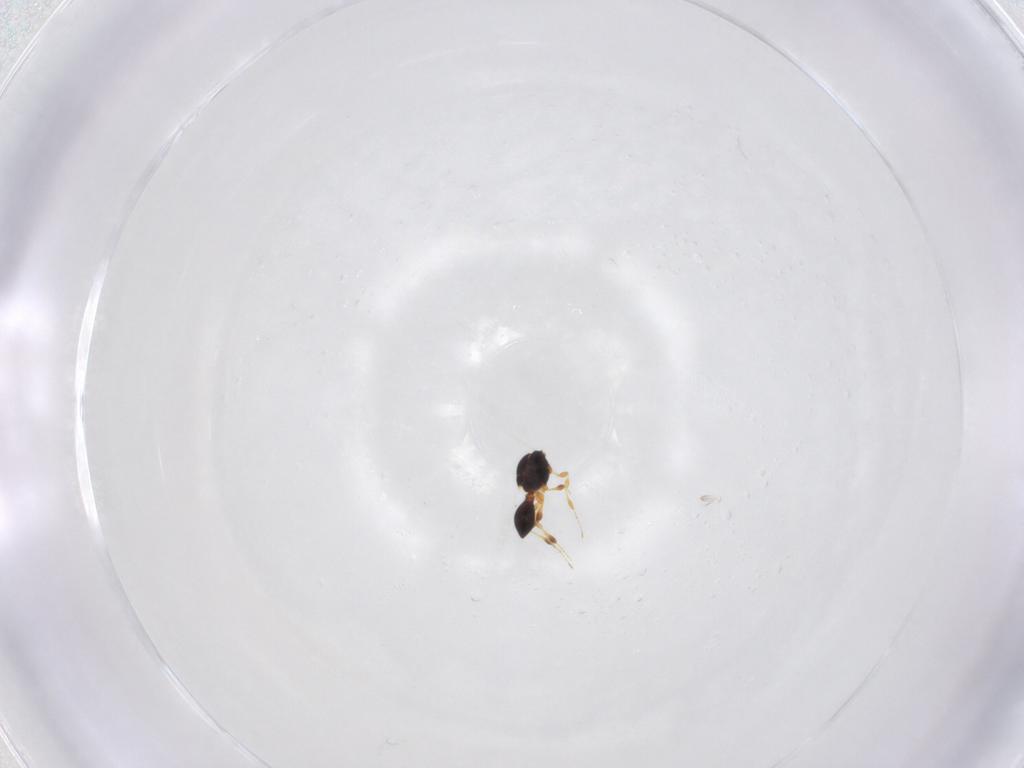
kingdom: Animalia
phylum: Arthropoda
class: Insecta
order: Hymenoptera
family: Platygastridae
